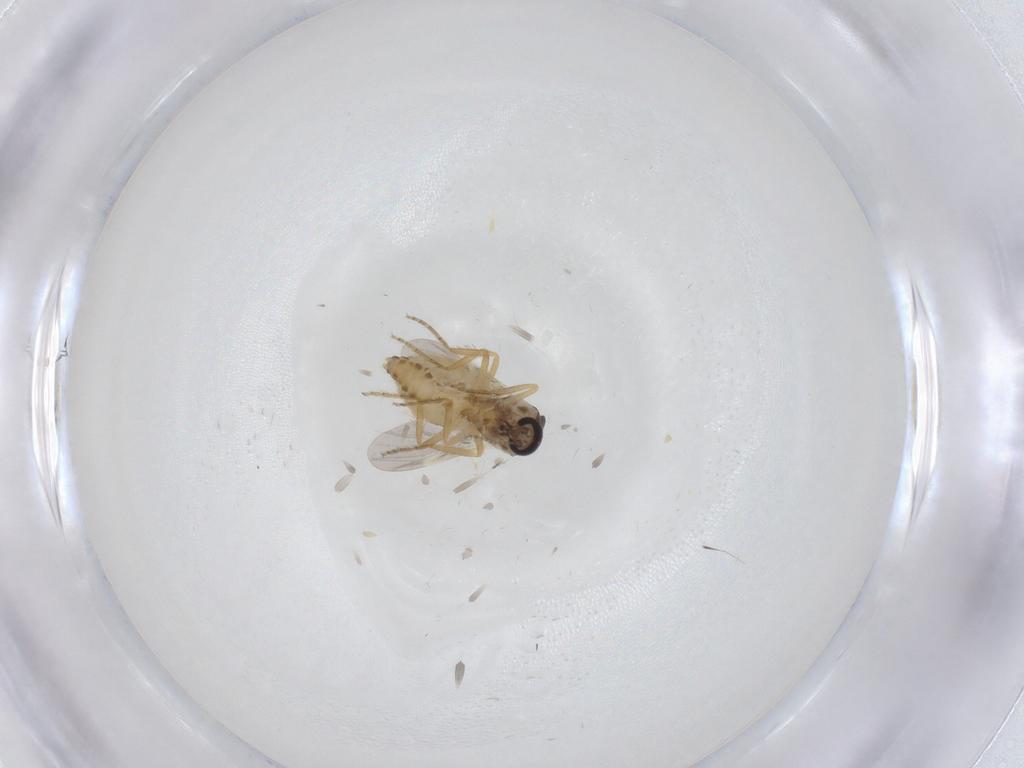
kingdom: Animalia
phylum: Arthropoda
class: Insecta
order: Diptera
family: Ceratopogonidae
